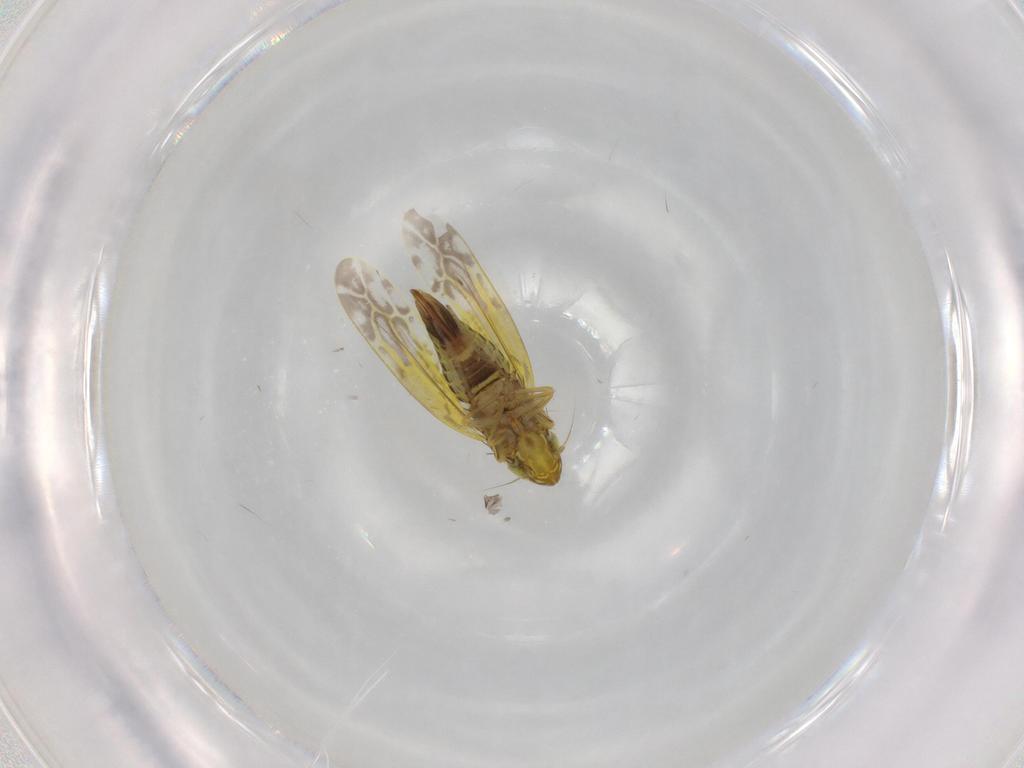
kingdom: Animalia
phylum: Arthropoda
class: Insecta
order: Hemiptera
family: Cicadellidae
